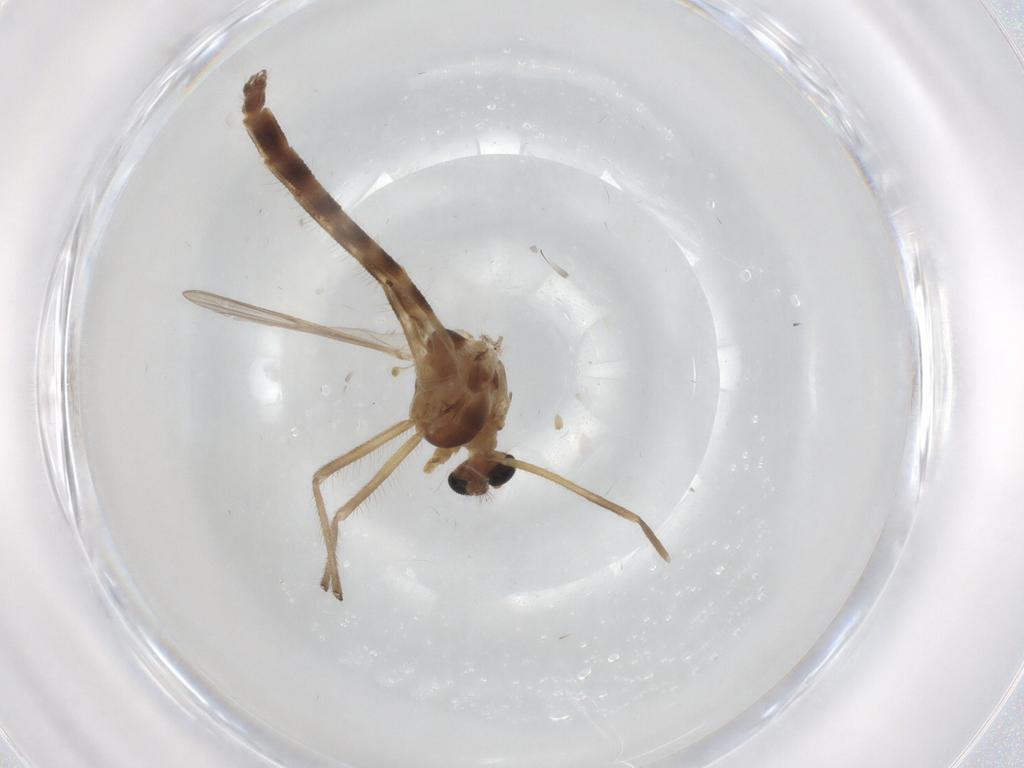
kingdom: Animalia
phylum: Arthropoda
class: Insecta
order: Diptera
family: Chironomidae
